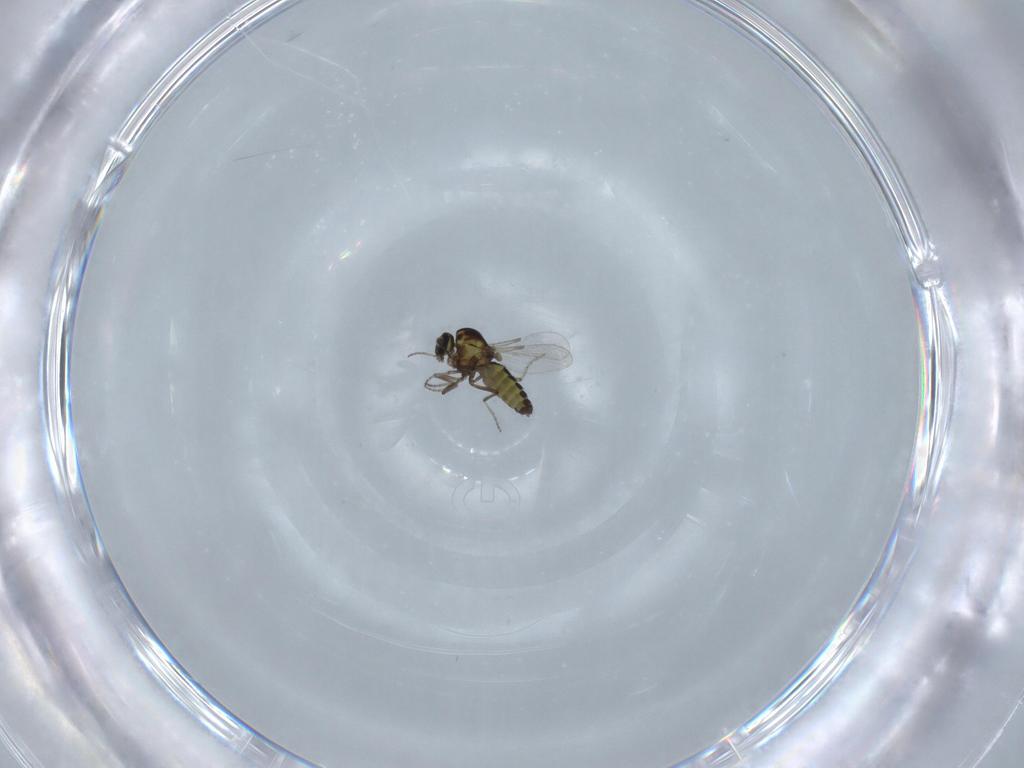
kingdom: Animalia
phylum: Arthropoda
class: Insecta
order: Diptera
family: Ceratopogonidae
